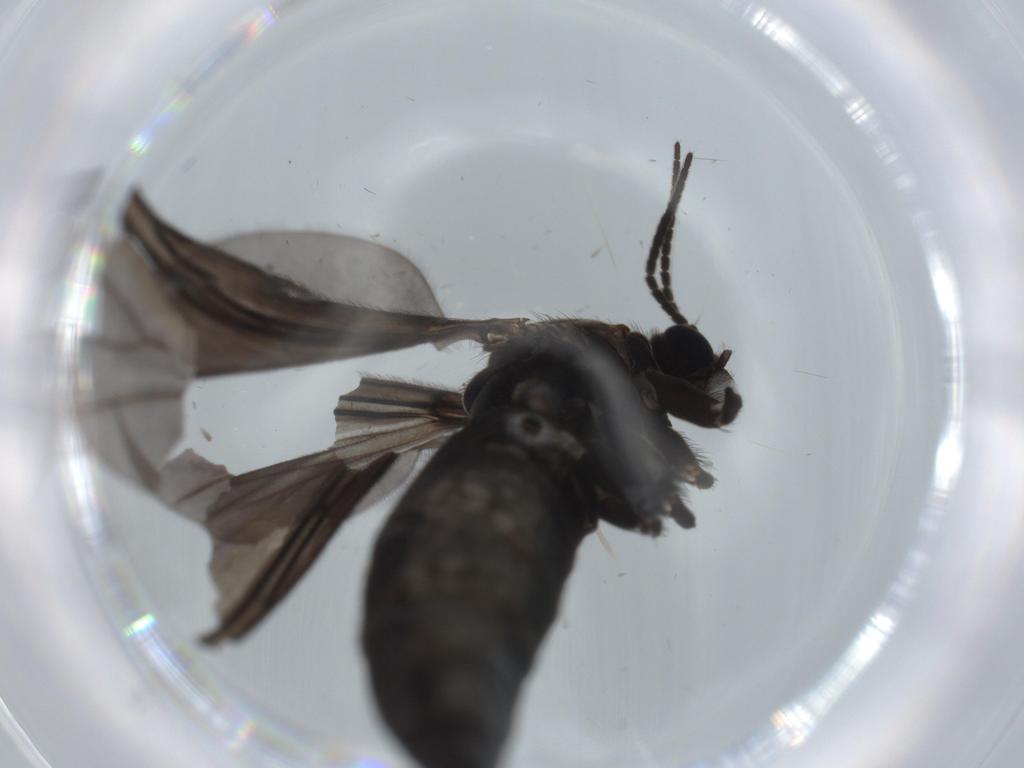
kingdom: Animalia
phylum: Arthropoda
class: Insecta
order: Diptera
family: Sciaridae
